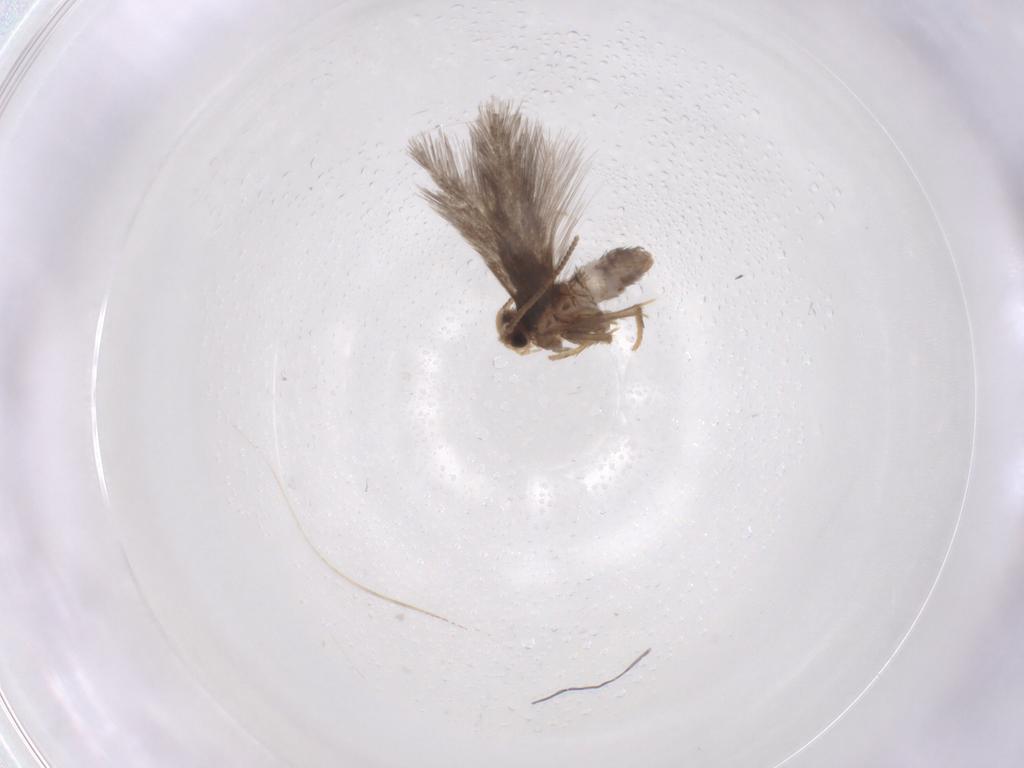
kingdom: Animalia
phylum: Arthropoda
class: Insecta
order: Lepidoptera
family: Nepticulidae
